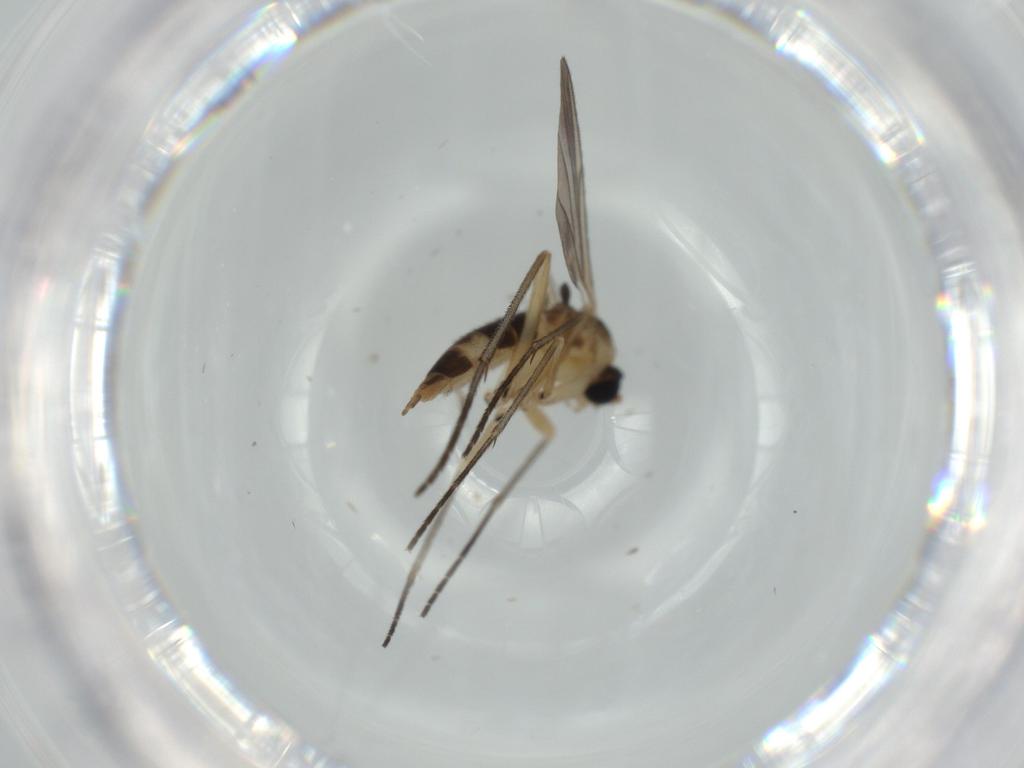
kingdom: Animalia
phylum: Arthropoda
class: Insecta
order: Diptera
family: Sciaridae
